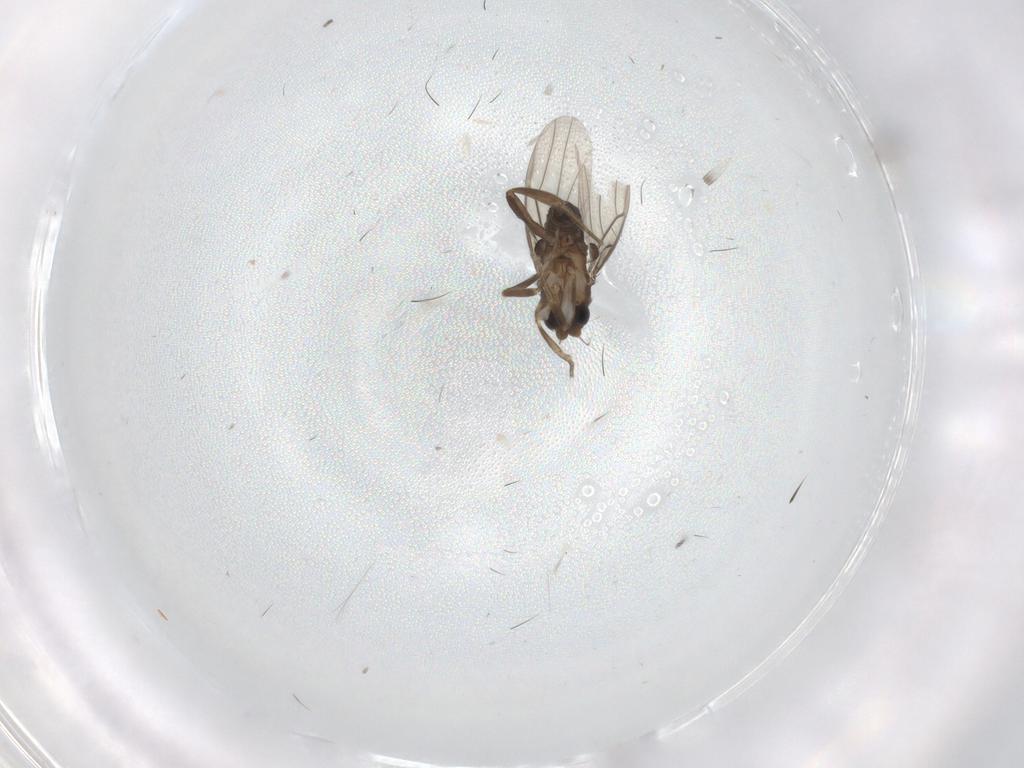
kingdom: Animalia
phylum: Arthropoda
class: Insecta
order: Diptera
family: Phoridae
